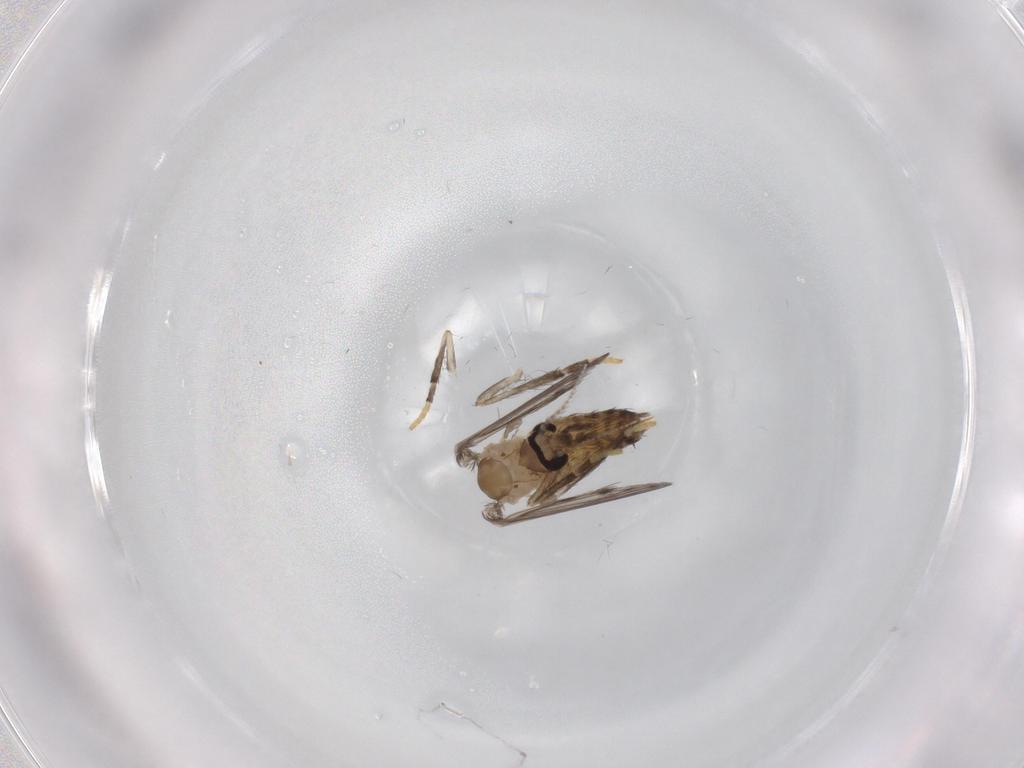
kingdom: Animalia
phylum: Arthropoda
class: Insecta
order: Diptera
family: Psychodidae
